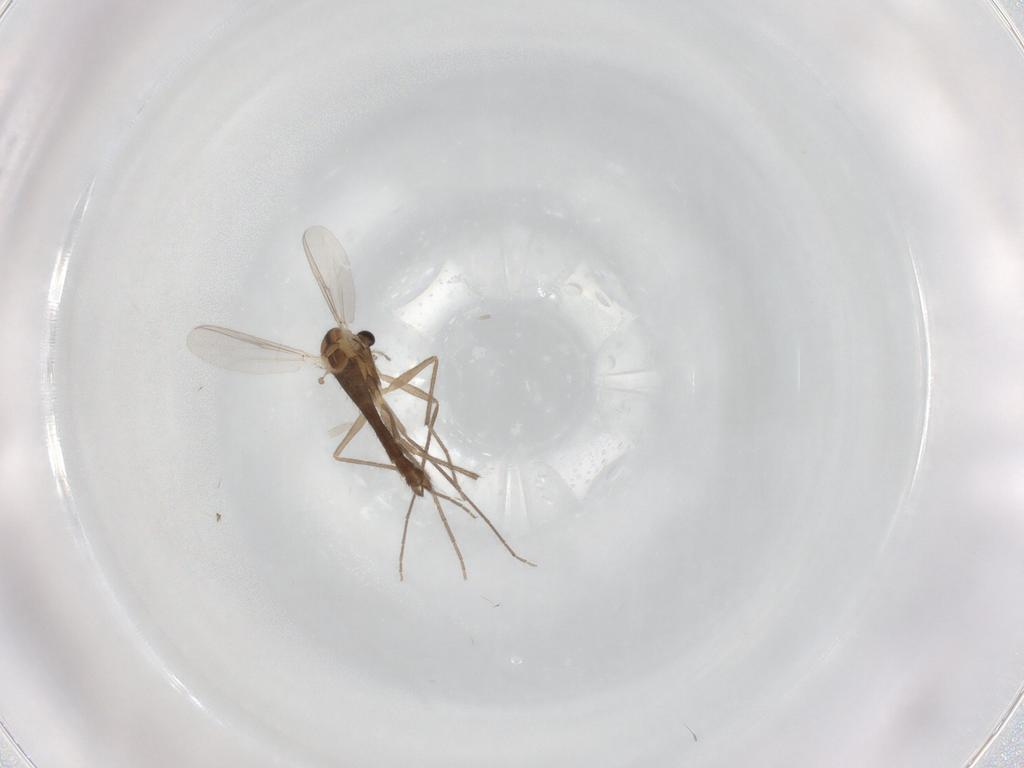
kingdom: Animalia
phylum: Arthropoda
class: Insecta
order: Diptera
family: Chironomidae
